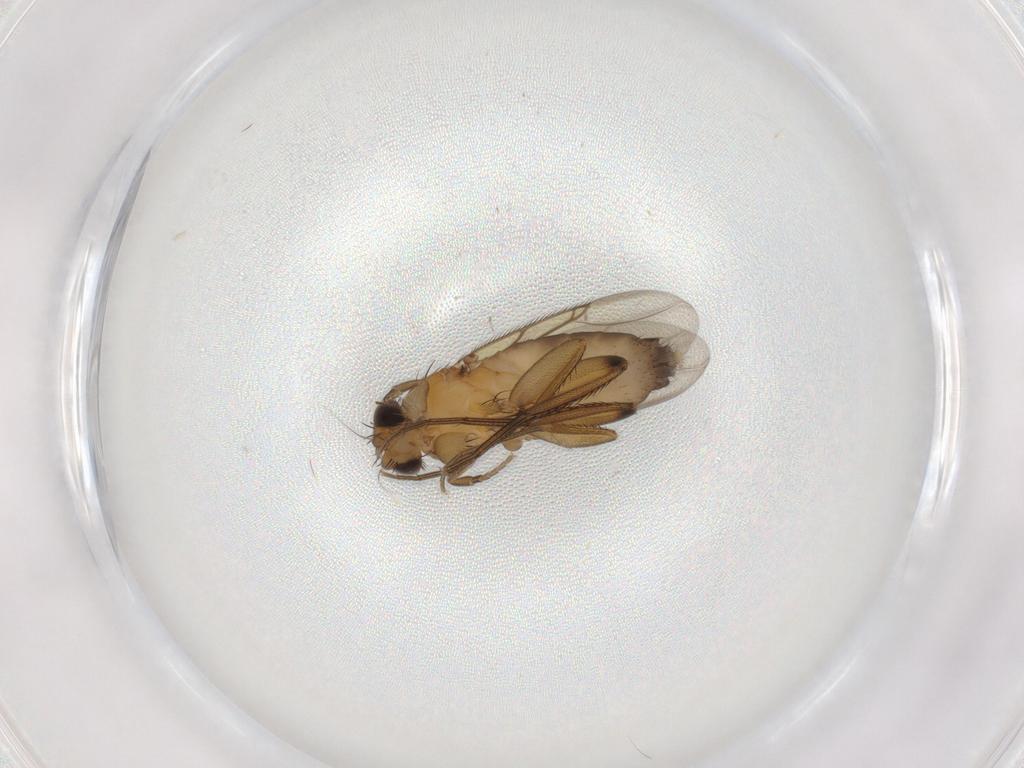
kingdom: Animalia
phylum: Arthropoda
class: Insecta
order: Diptera
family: Phoridae
